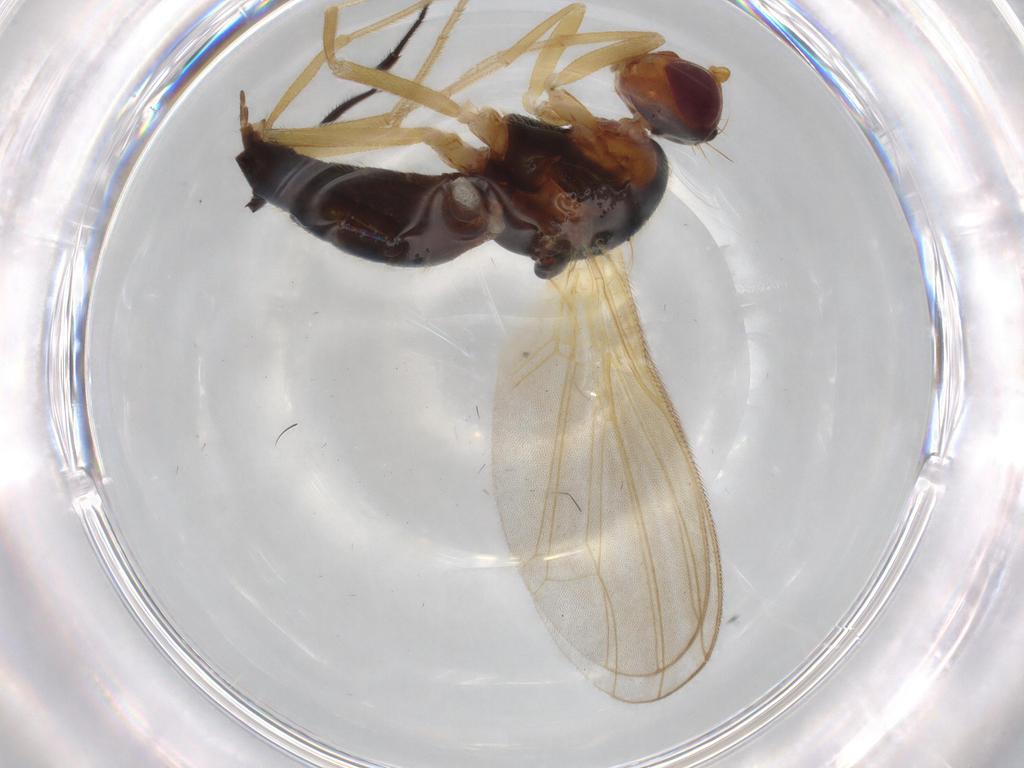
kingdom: Animalia
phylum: Arthropoda
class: Insecta
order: Diptera
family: Hybotidae
